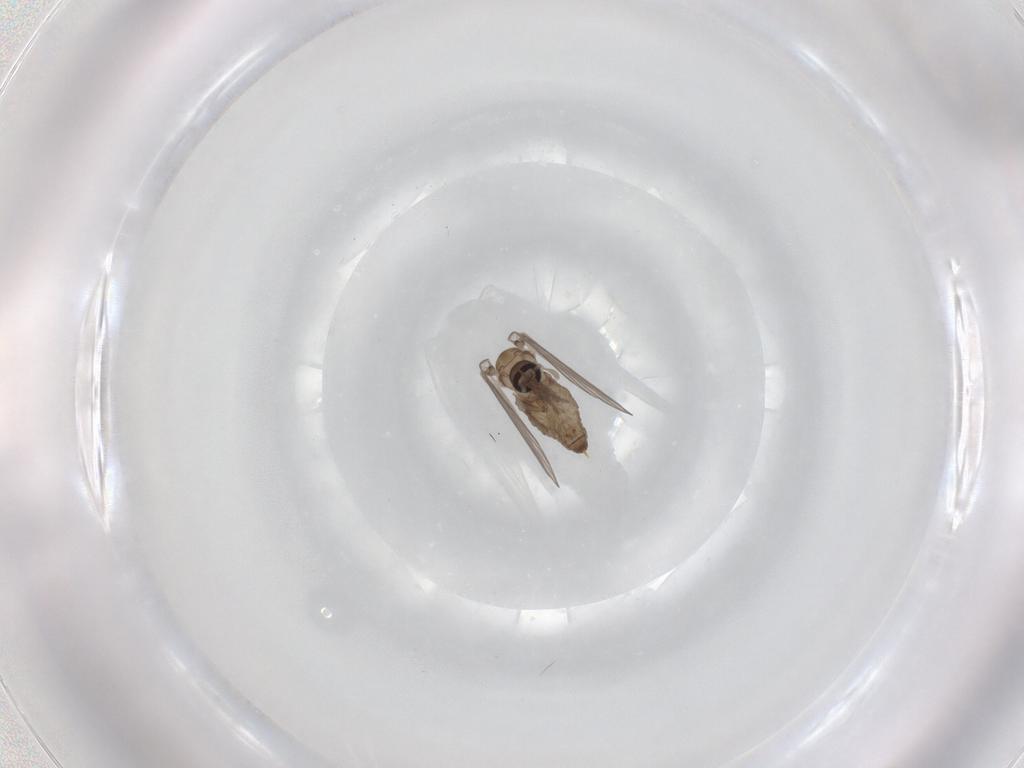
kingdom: Animalia
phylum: Arthropoda
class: Insecta
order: Diptera
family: Psychodidae
